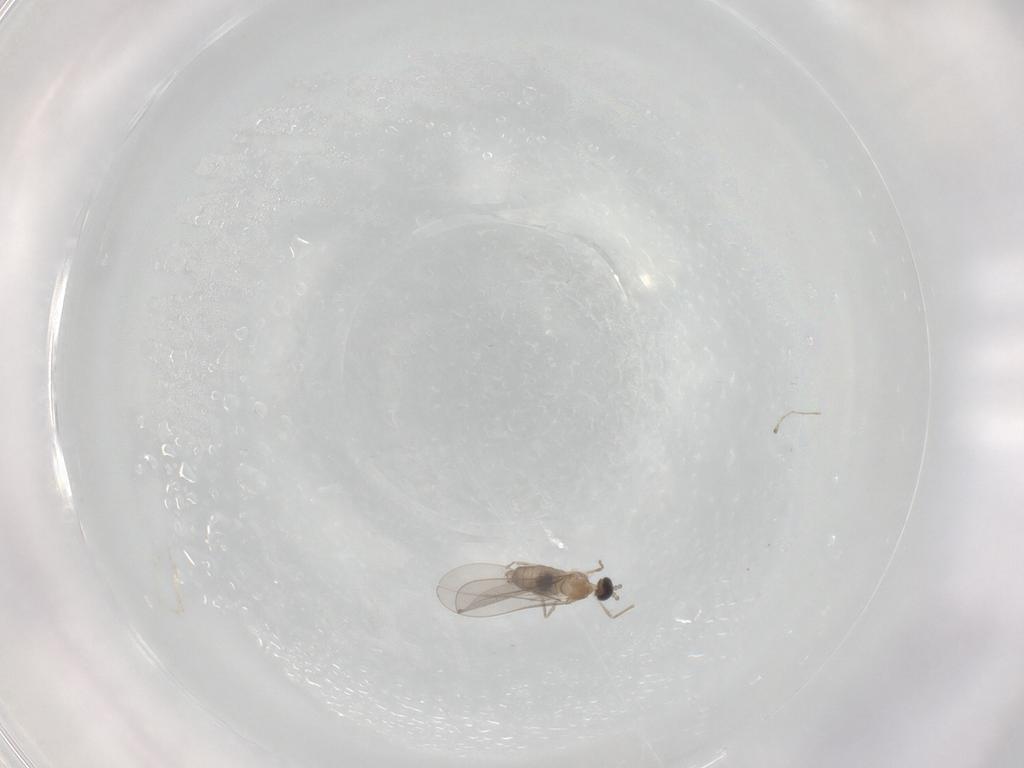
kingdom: Animalia
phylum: Arthropoda
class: Insecta
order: Diptera
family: Cecidomyiidae
